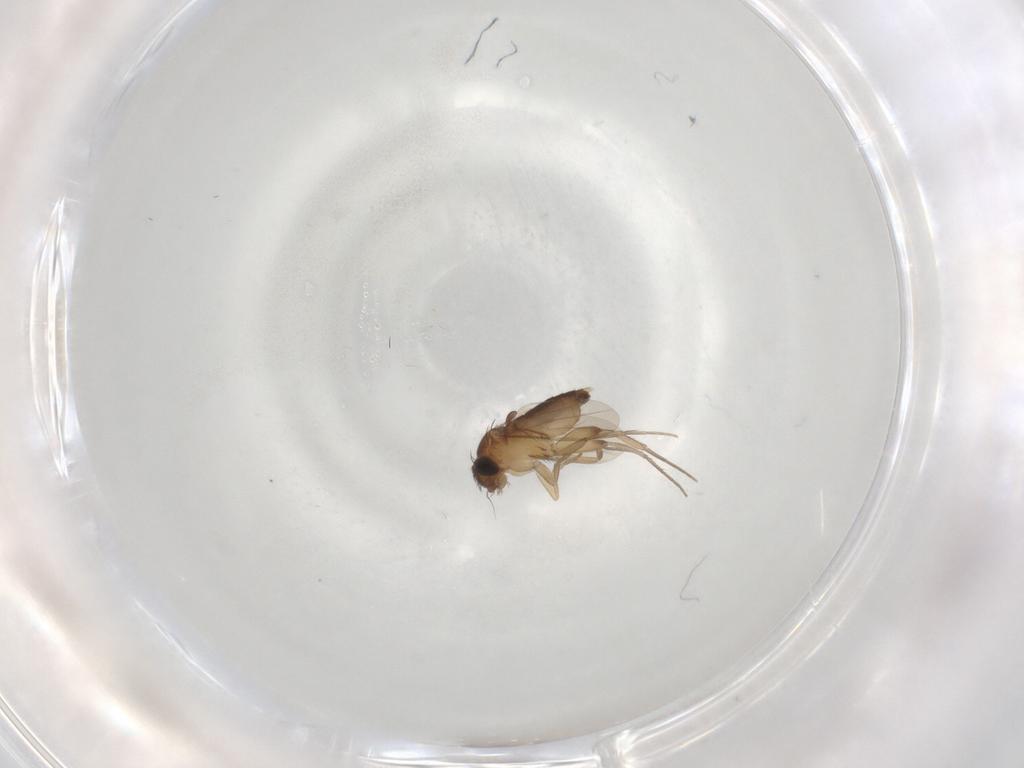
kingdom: Animalia
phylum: Arthropoda
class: Insecta
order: Diptera
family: Phoridae
